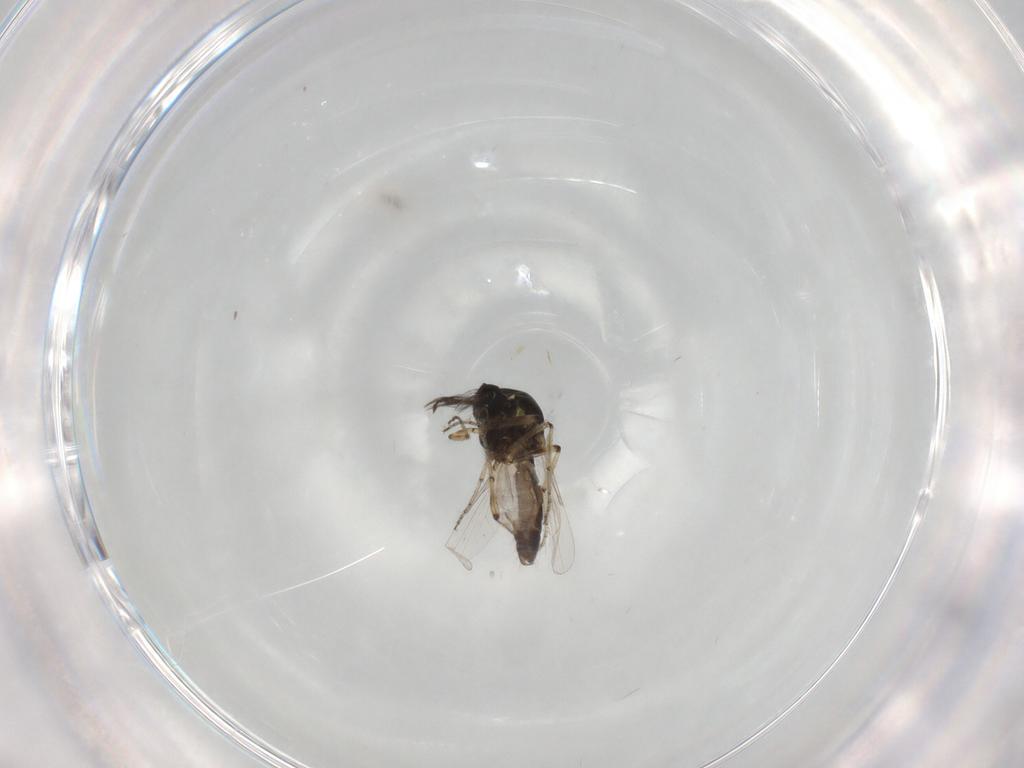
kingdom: Animalia
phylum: Arthropoda
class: Insecta
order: Diptera
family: Cecidomyiidae
